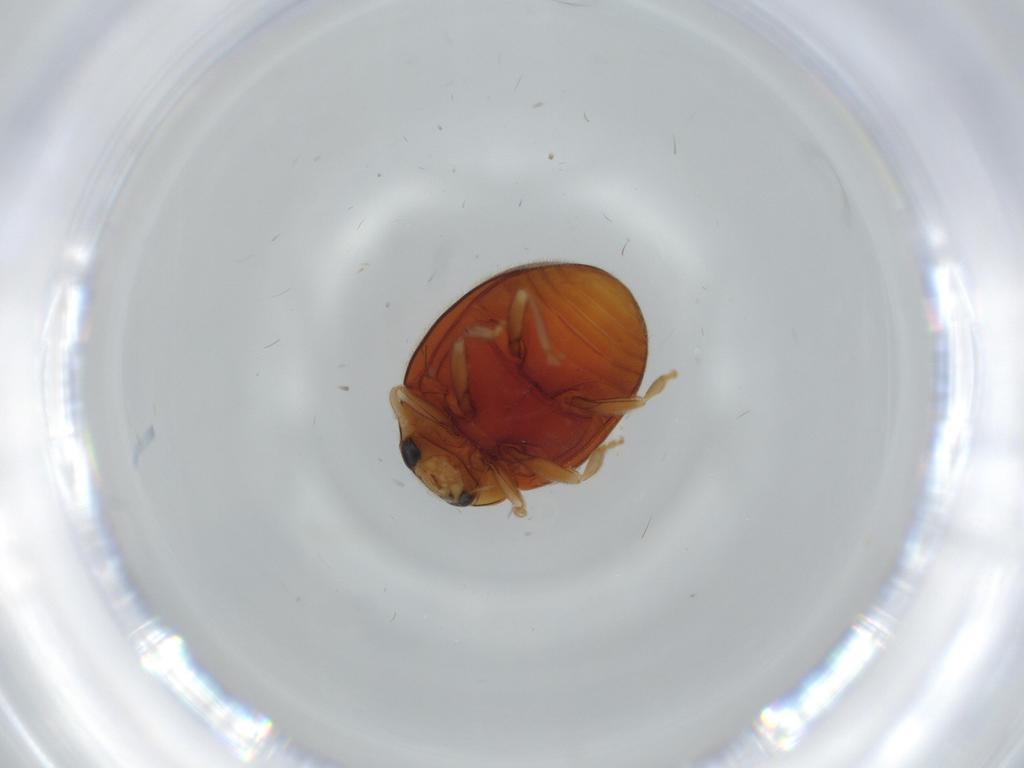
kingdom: Animalia
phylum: Arthropoda
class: Insecta
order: Coleoptera
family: Coccinellidae
